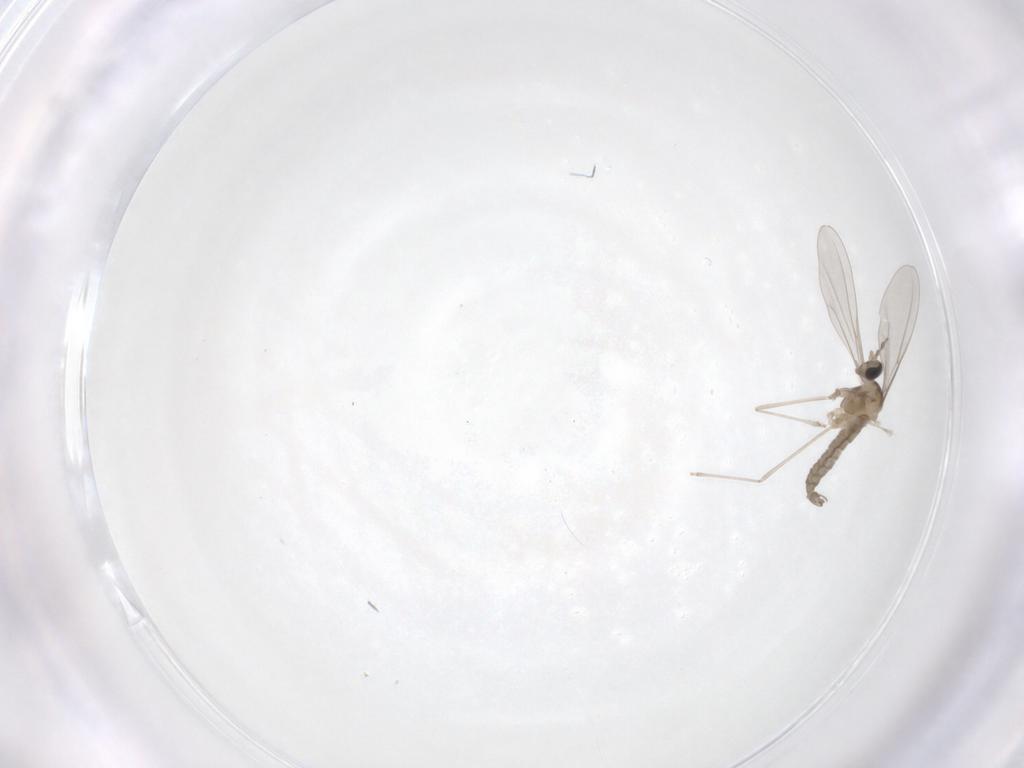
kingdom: Animalia
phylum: Arthropoda
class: Insecta
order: Diptera
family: Cecidomyiidae
